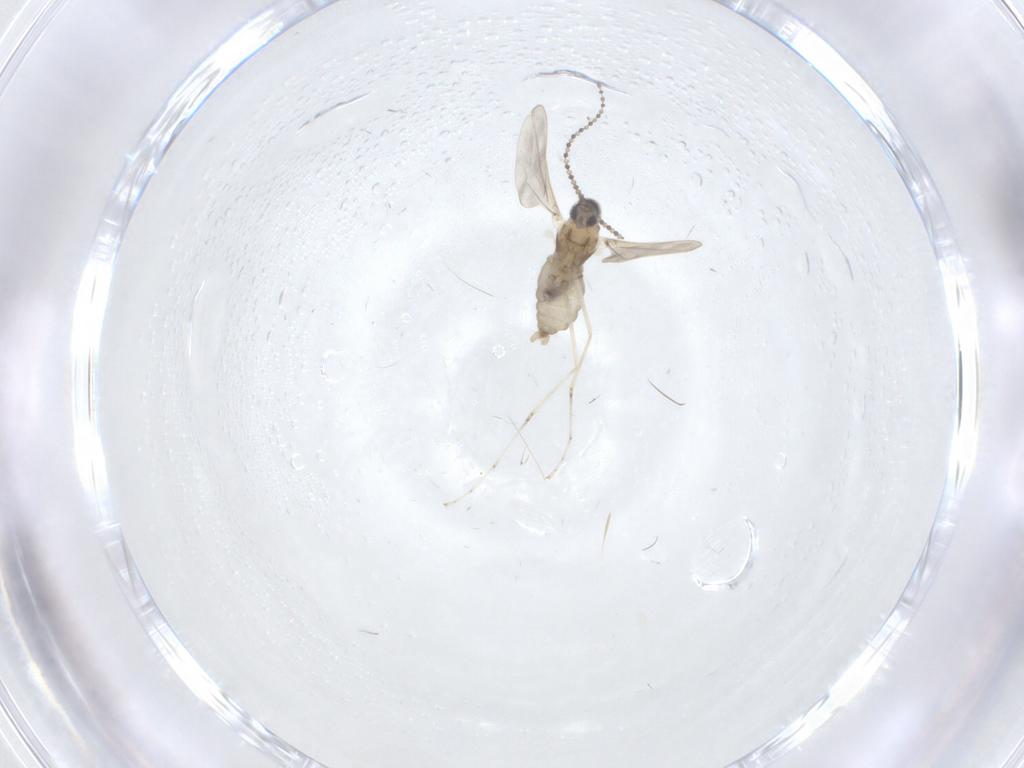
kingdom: Animalia
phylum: Arthropoda
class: Insecta
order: Diptera
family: Cecidomyiidae
